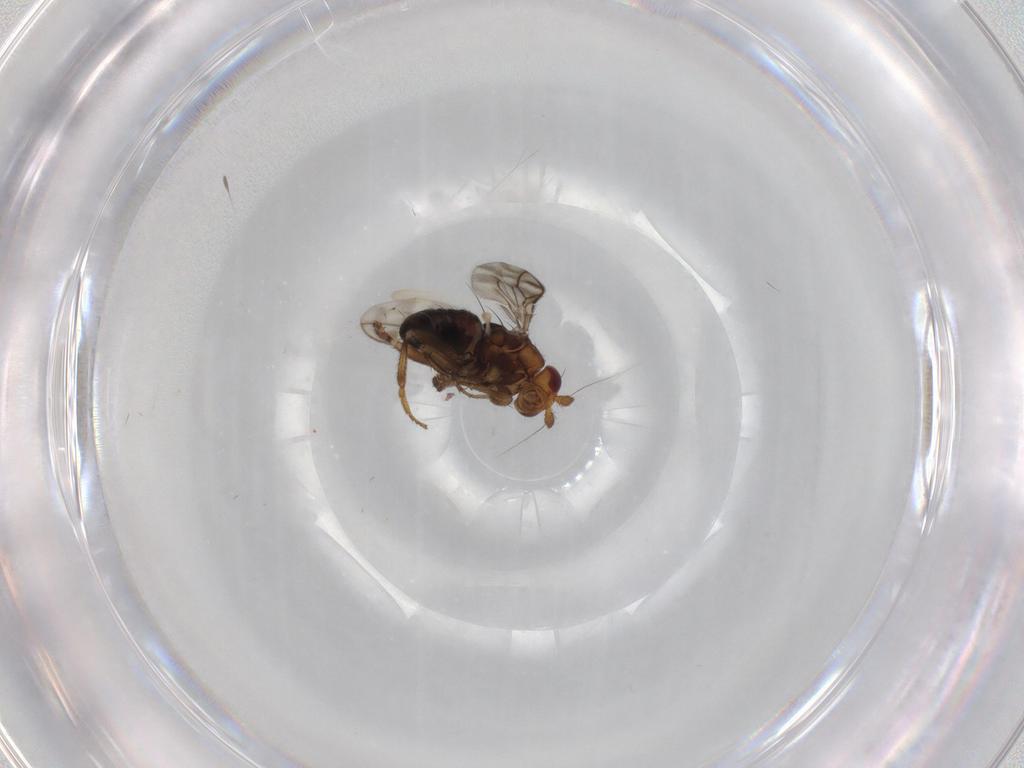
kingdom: Animalia
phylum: Arthropoda
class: Insecta
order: Diptera
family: Sphaeroceridae
